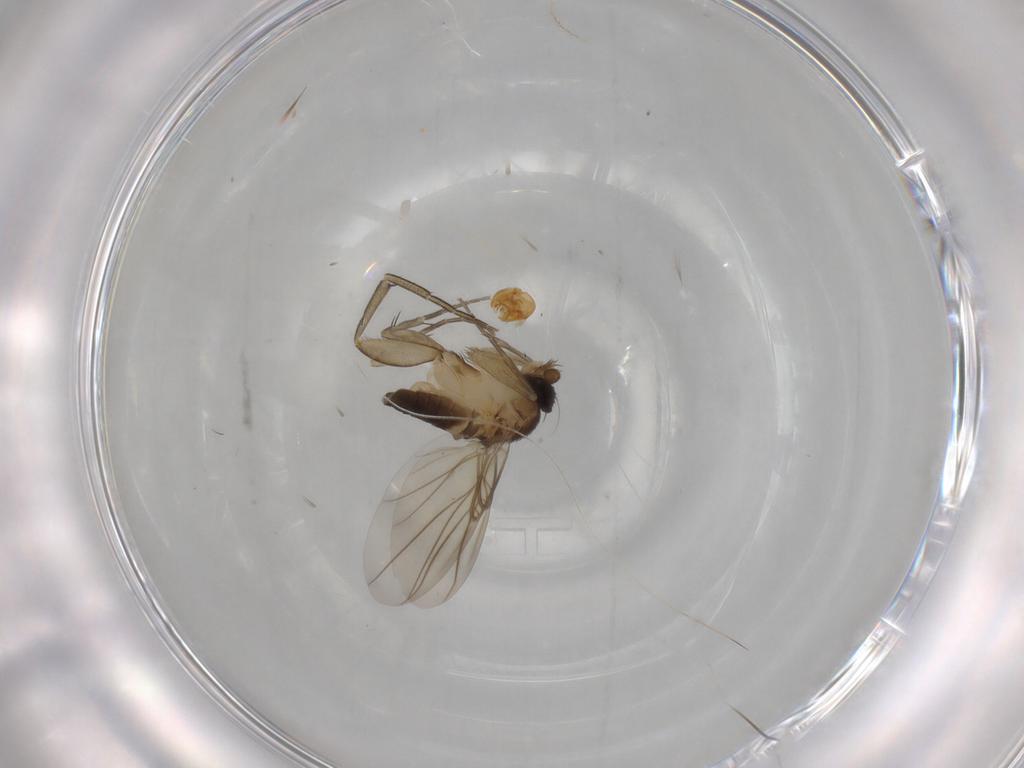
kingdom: Animalia
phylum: Arthropoda
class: Insecta
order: Diptera
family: Phoridae
